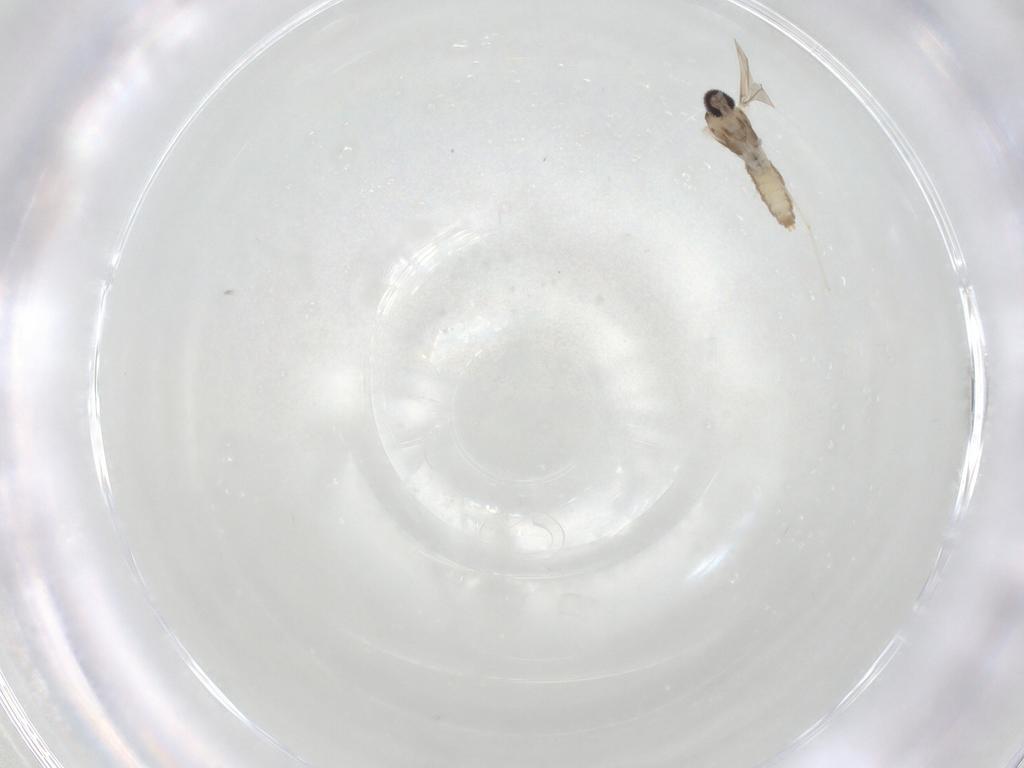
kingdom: Animalia
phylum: Arthropoda
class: Insecta
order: Diptera
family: Cecidomyiidae
